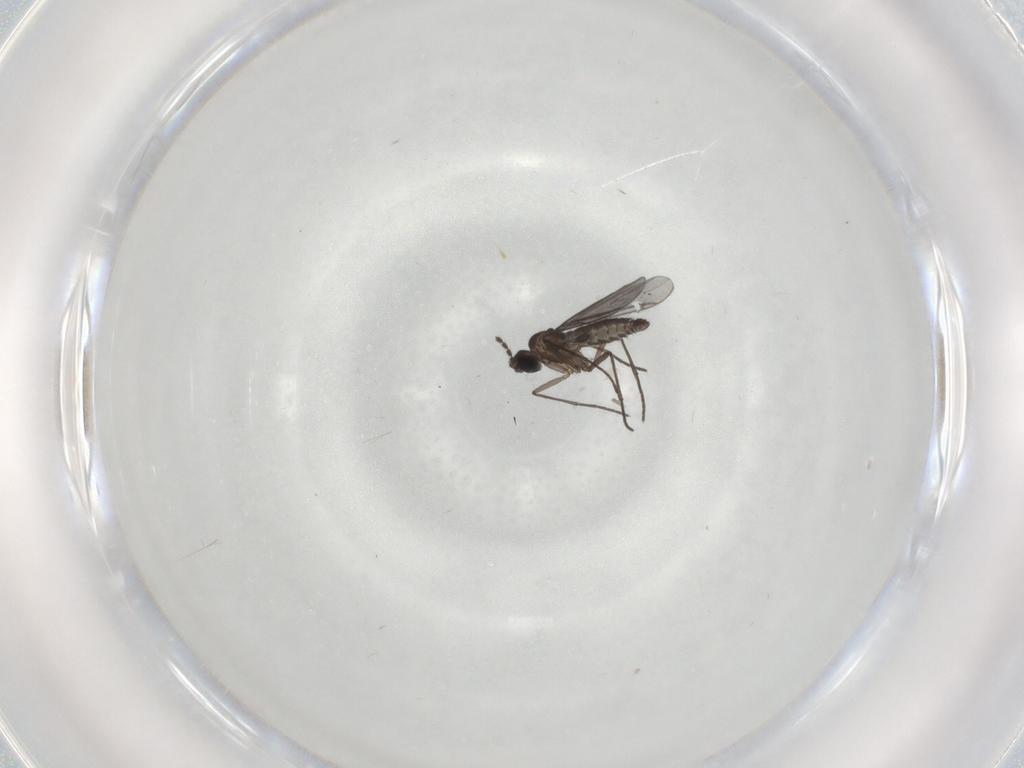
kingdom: Animalia
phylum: Arthropoda
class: Insecta
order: Diptera
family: Drosophilidae
